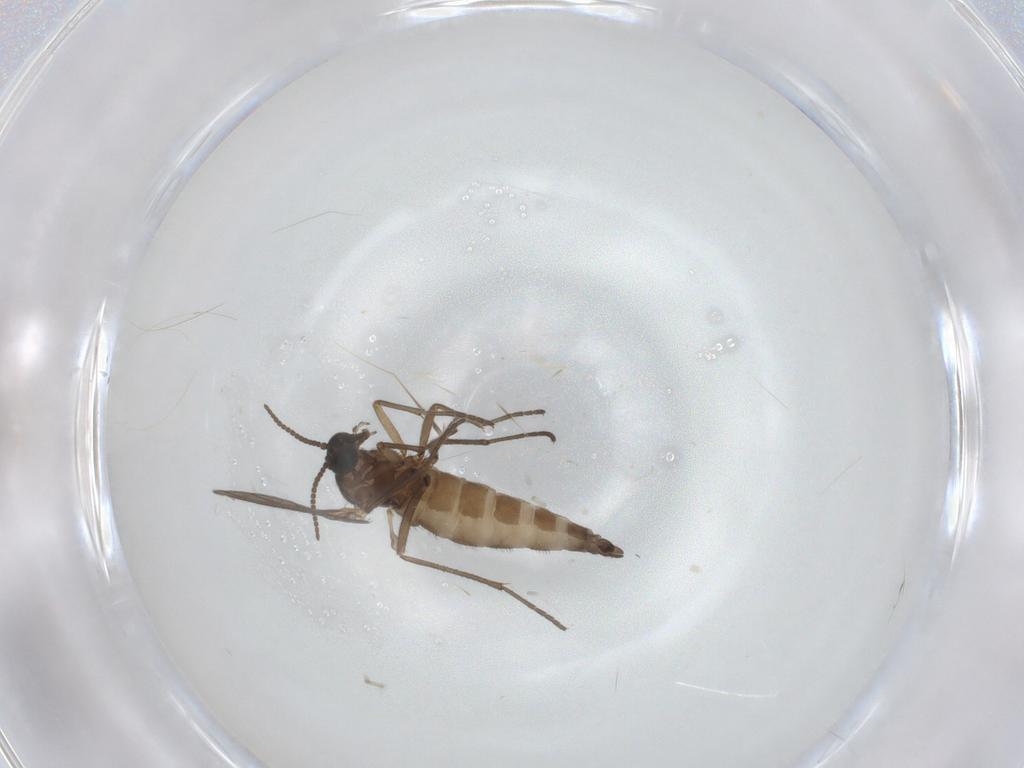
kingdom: Animalia
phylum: Arthropoda
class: Insecta
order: Diptera
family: Sciaridae
